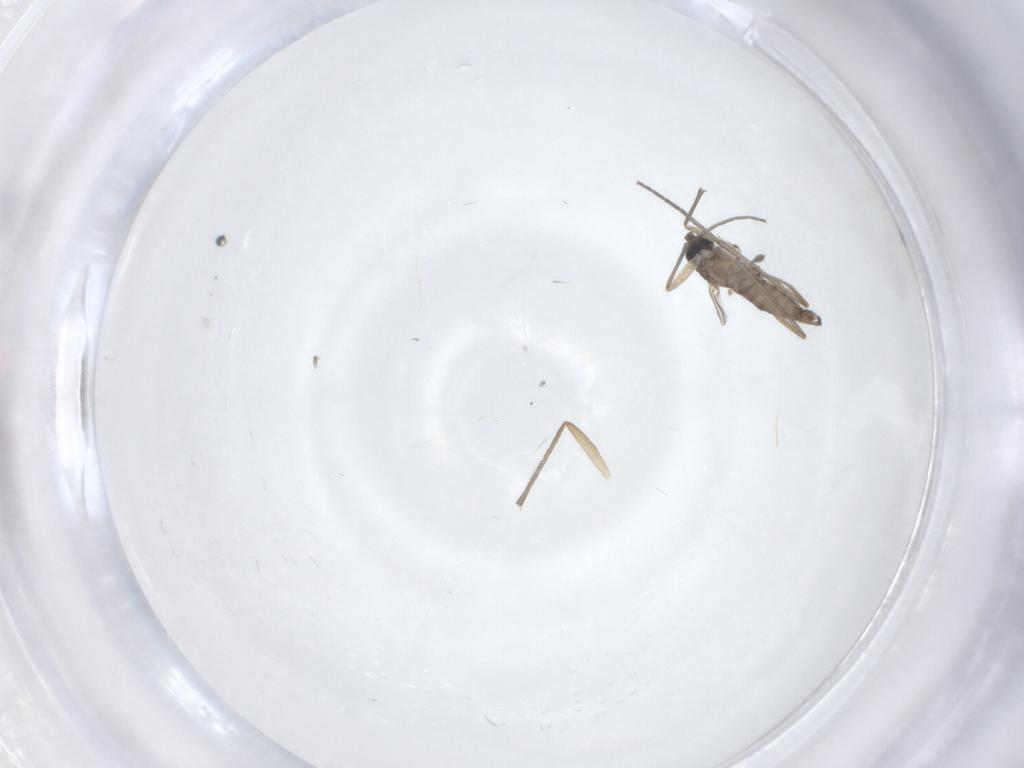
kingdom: Animalia
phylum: Arthropoda
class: Insecta
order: Diptera
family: Sciaridae
